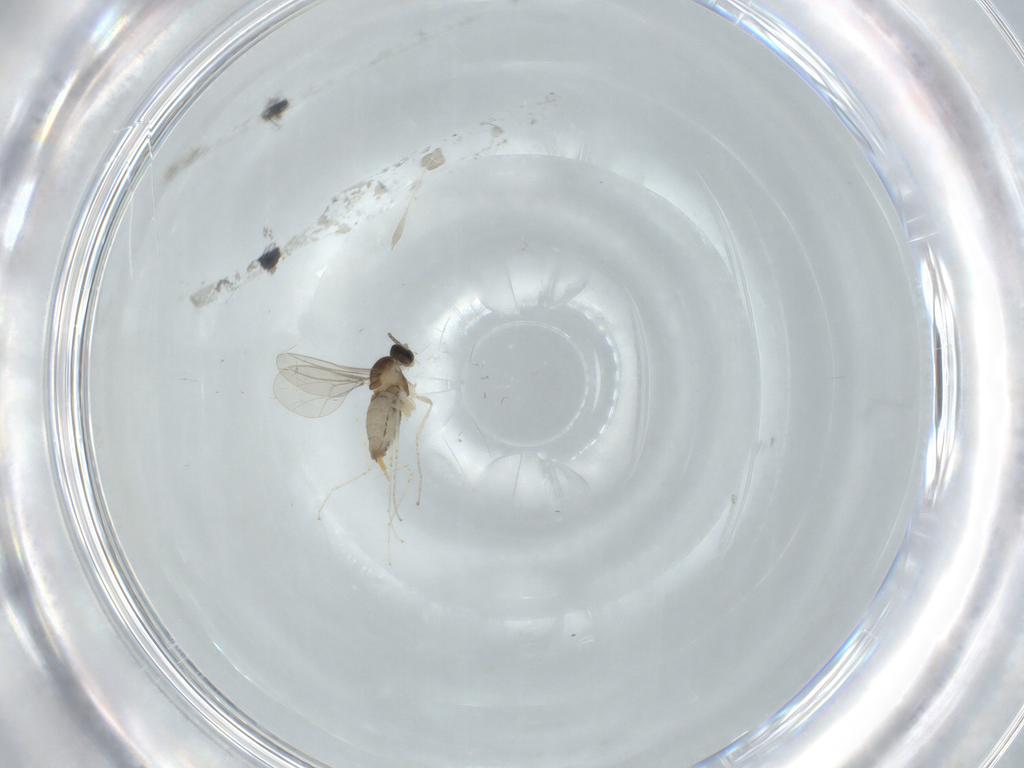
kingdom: Animalia
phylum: Arthropoda
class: Insecta
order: Diptera
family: Cecidomyiidae
